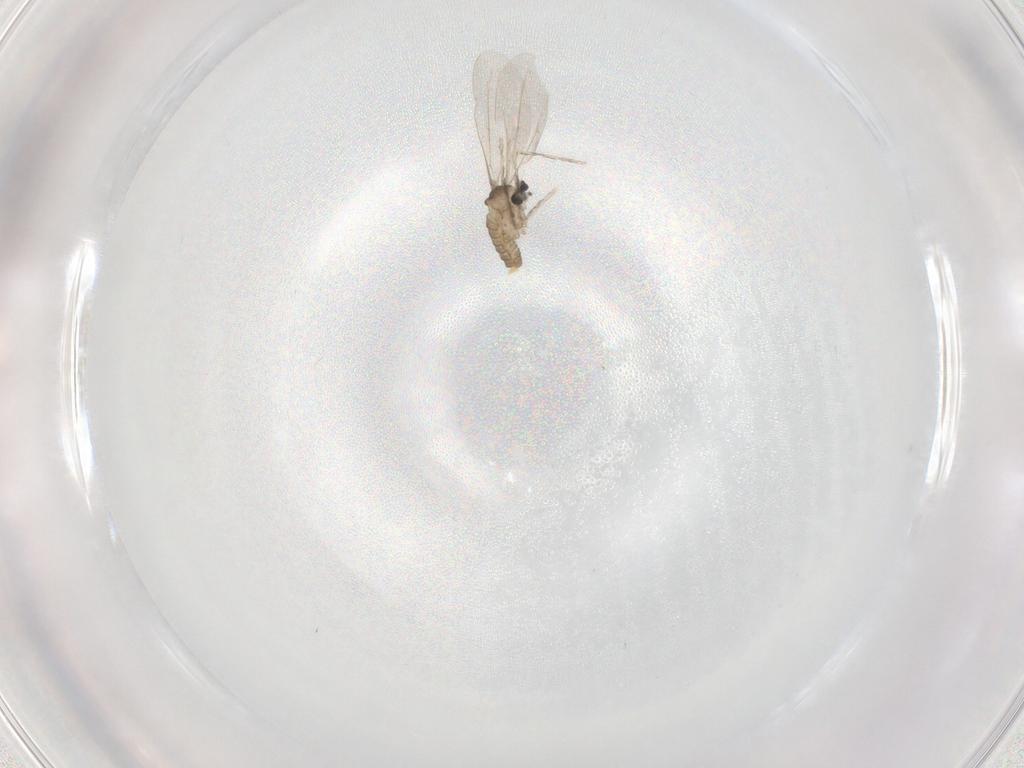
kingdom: Animalia
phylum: Arthropoda
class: Insecta
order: Diptera
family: Cecidomyiidae
